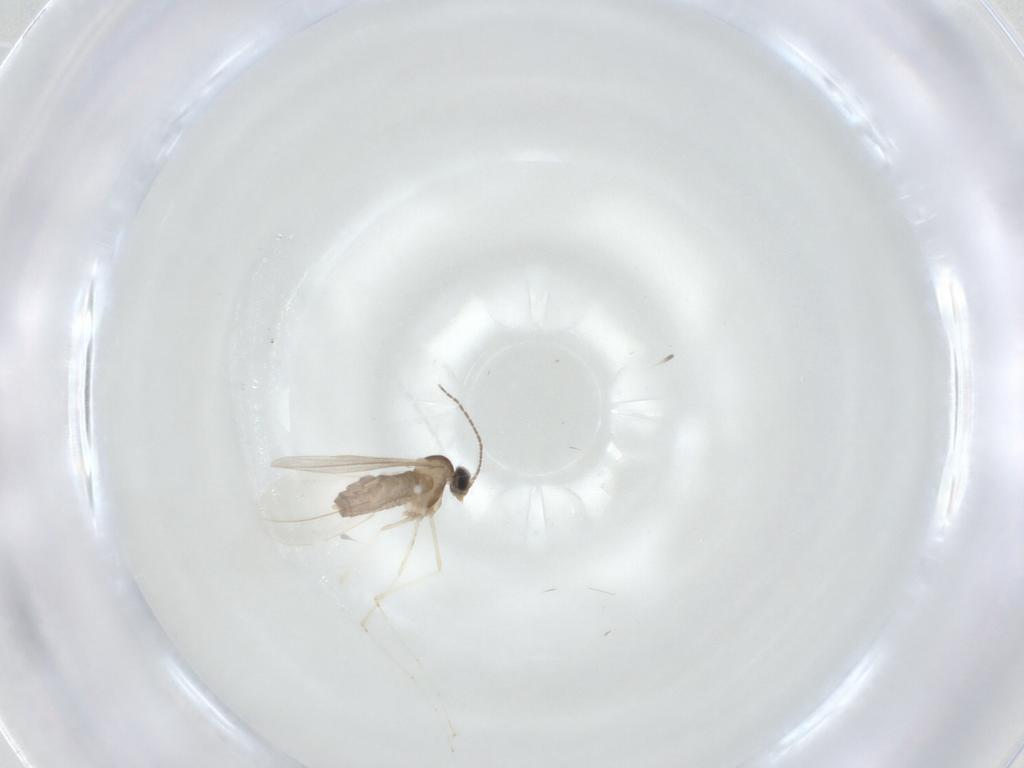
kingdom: Animalia
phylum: Arthropoda
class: Insecta
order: Diptera
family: Cecidomyiidae
